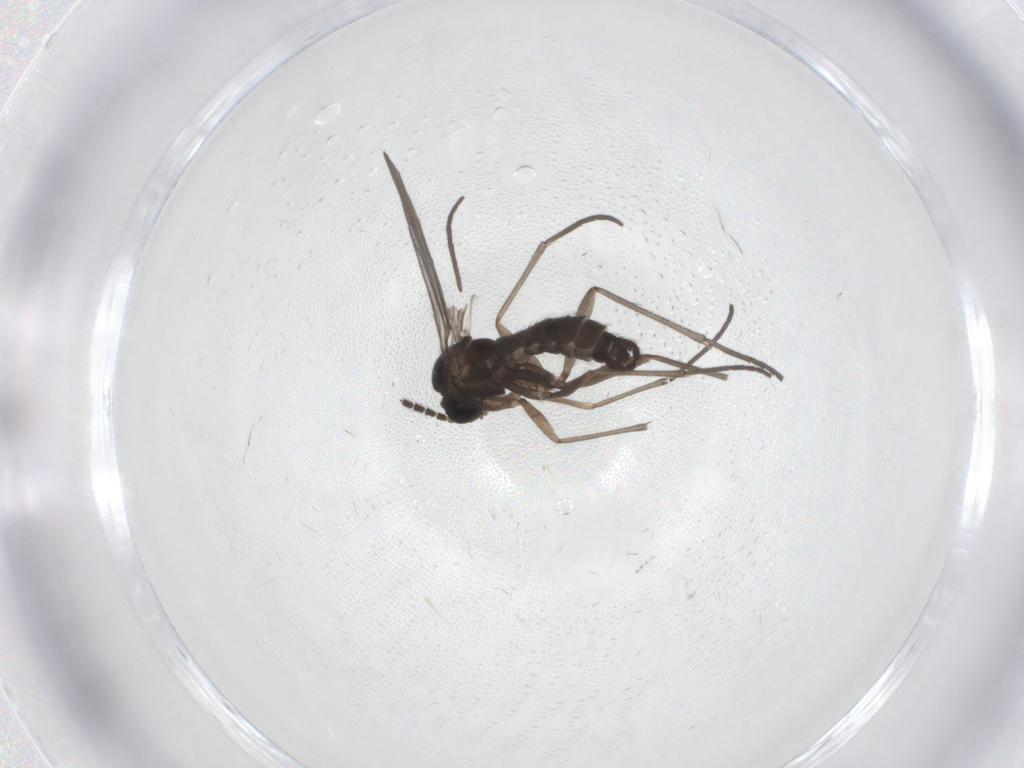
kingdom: Animalia
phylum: Arthropoda
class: Insecta
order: Diptera
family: Sciaridae
